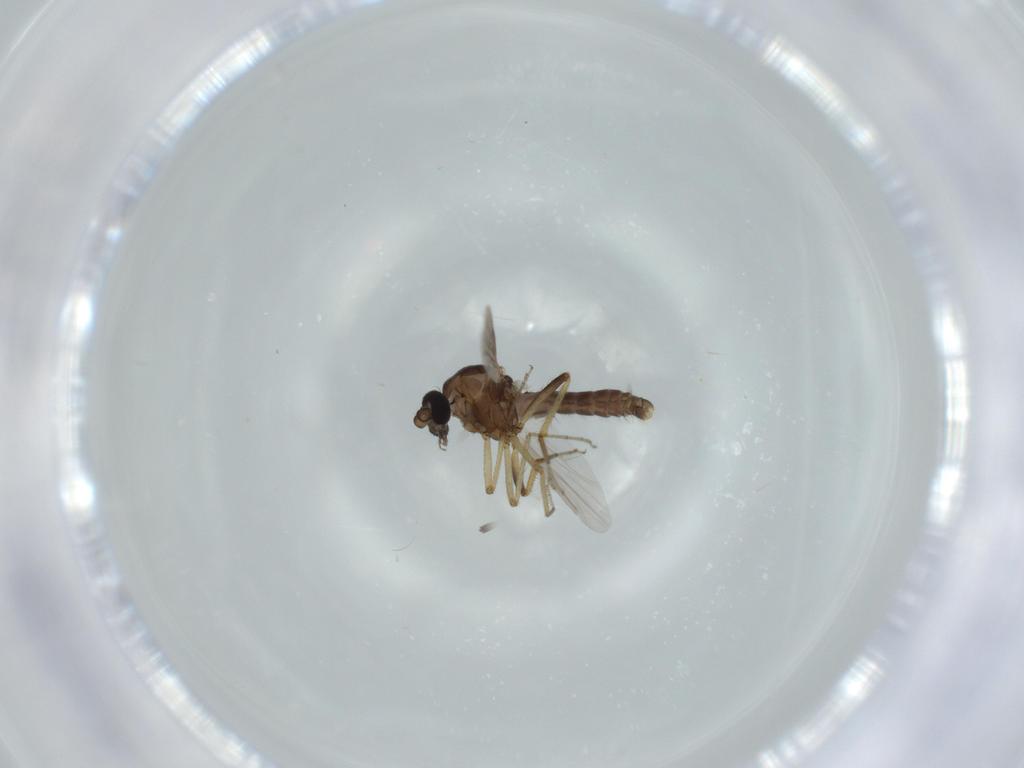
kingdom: Animalia
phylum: Arthropoda
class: Insecta
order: Diptera
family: Ceratopogonidae
